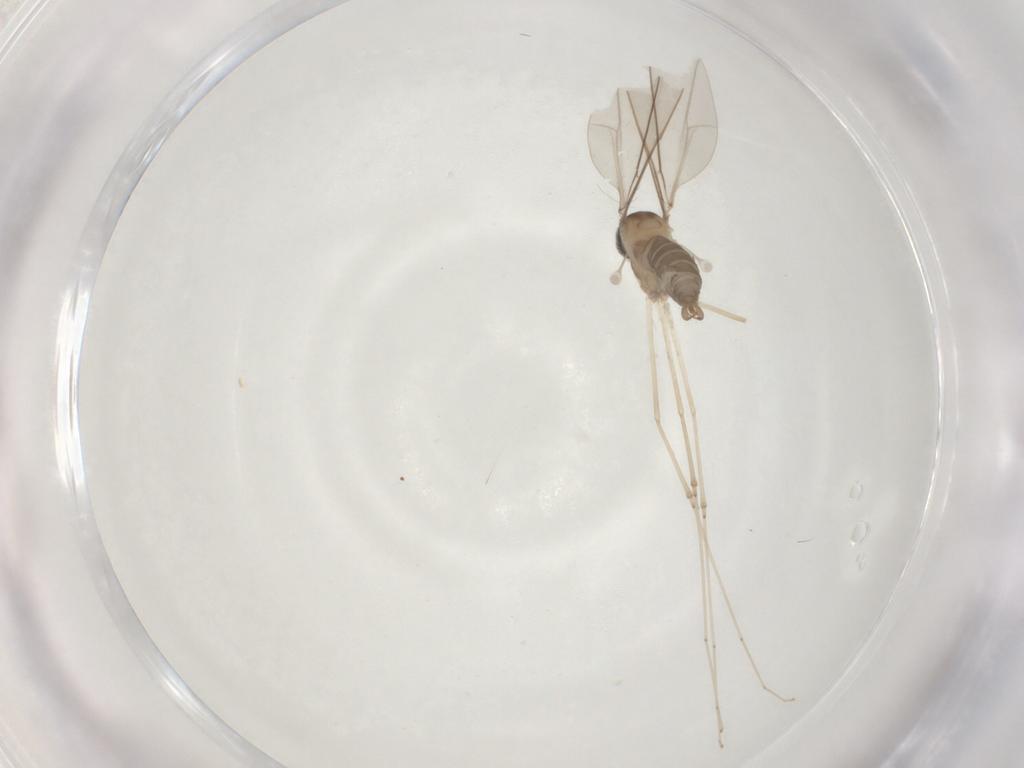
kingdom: Animalia
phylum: Arthropoda
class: Insecta
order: Diptera
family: Cecidomyiidae
